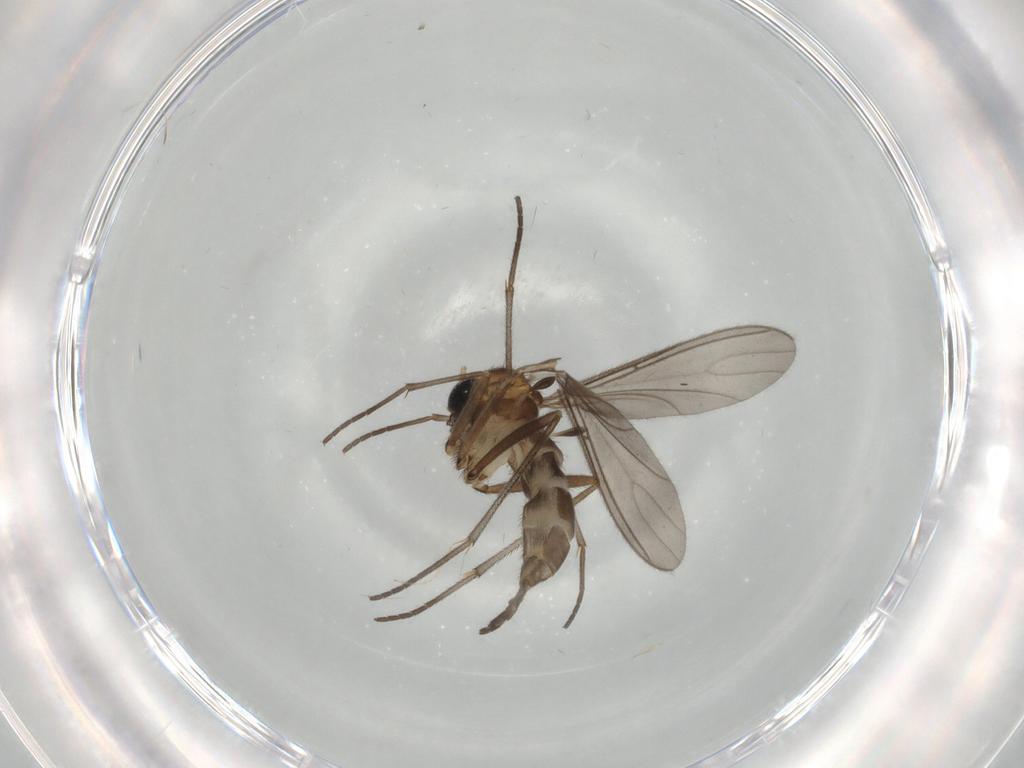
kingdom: Animalia
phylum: Arthropoda
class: Insecta
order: Diptera
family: Sciaridae
